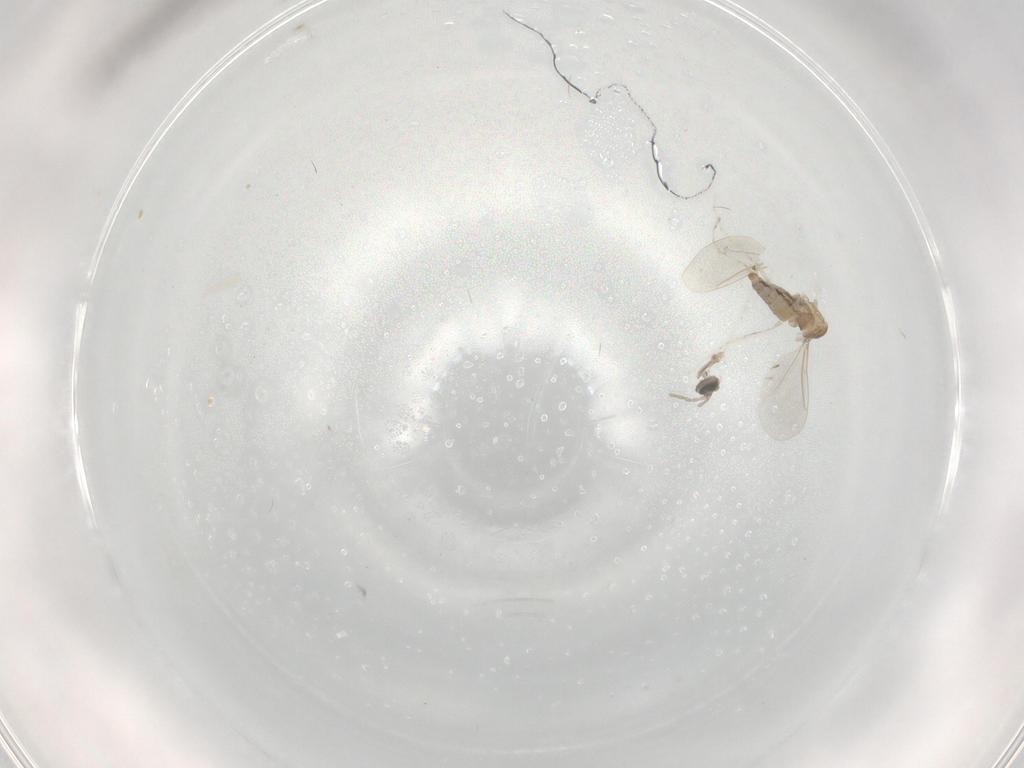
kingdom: Animalia
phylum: Arthropoda
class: Insecta
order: Diptera
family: Cecidomyiidae
